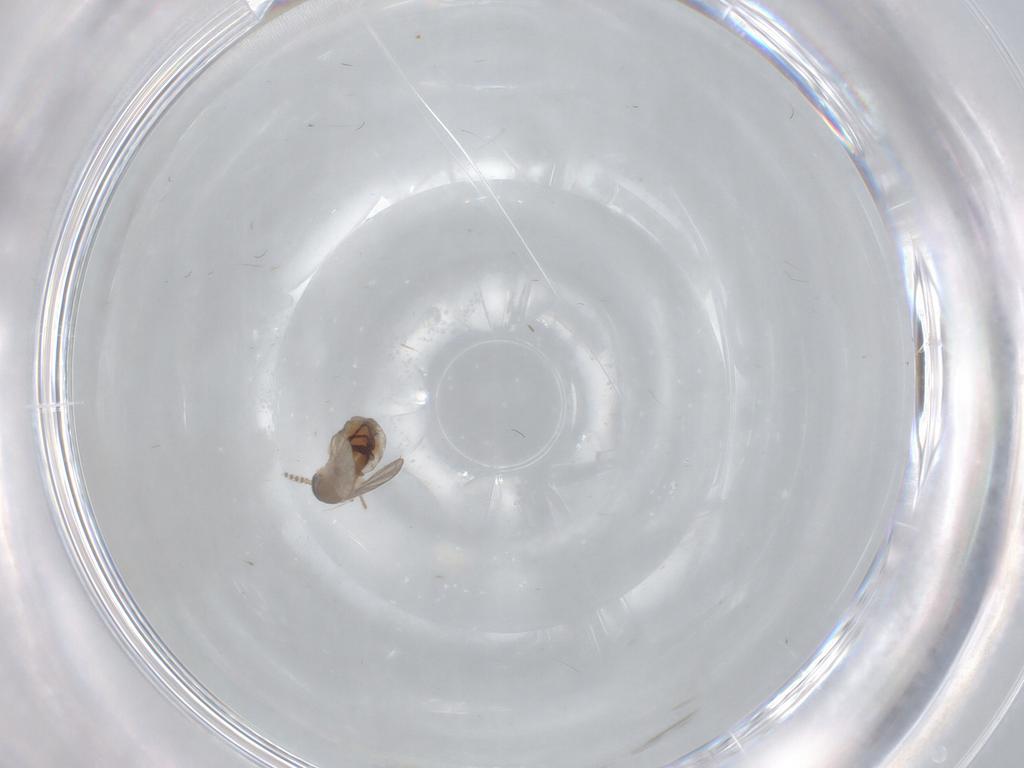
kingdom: Animalia
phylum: Arthropoda
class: Insecta
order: Diptera
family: Psychodidae
